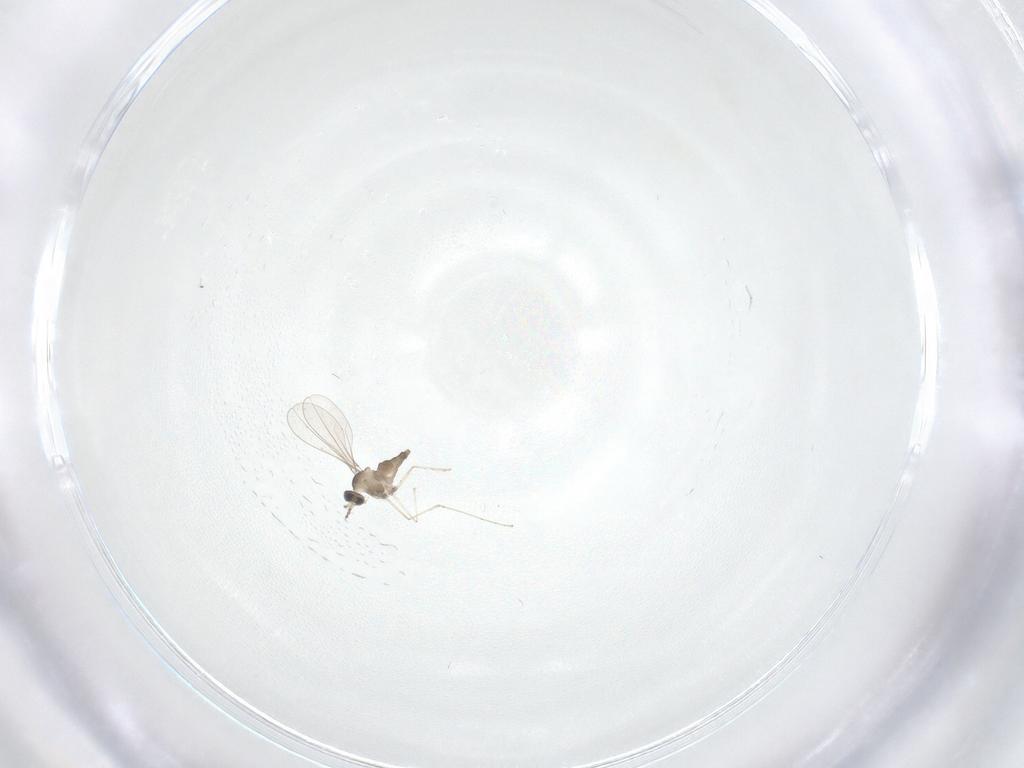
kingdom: Animalia
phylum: Arthropoda
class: Insecta
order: Diptera
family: Cecidomyiidae
